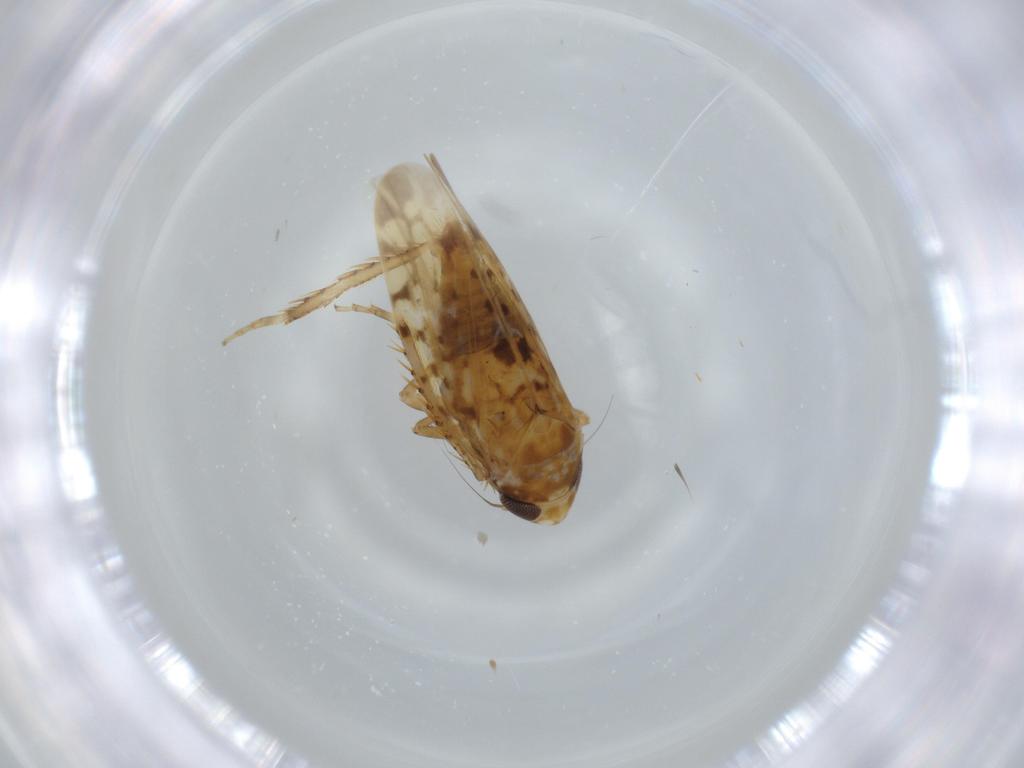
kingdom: Animalia
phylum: Arthropoda
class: Insecta
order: Hemiptera
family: Cicadellidae
